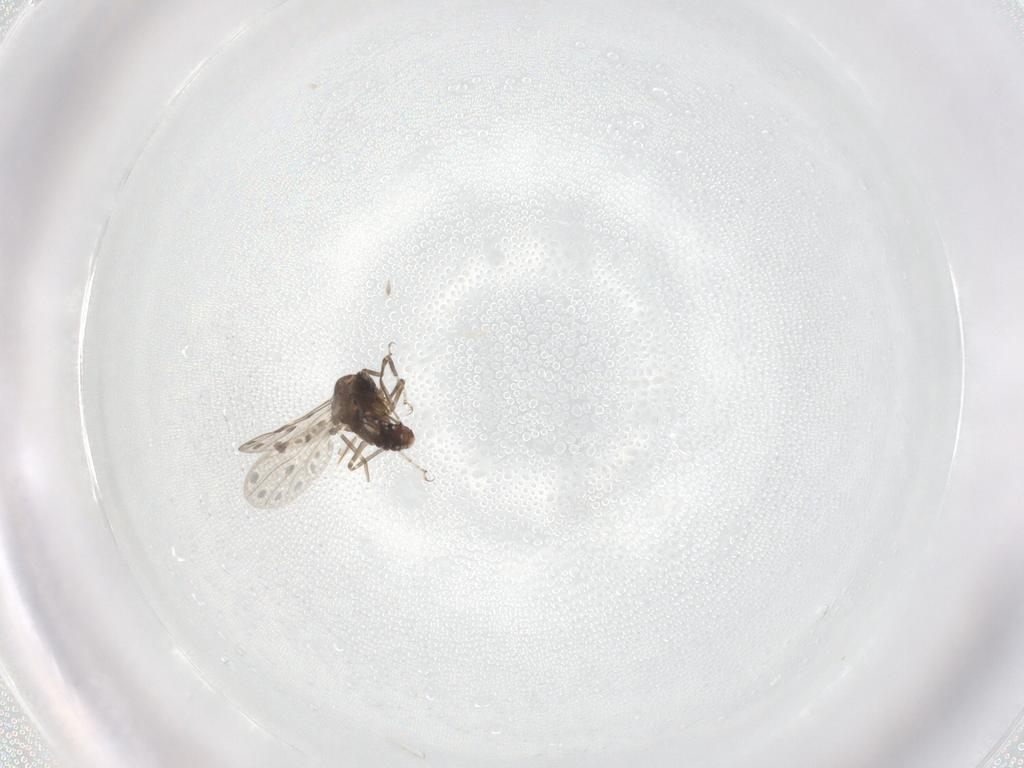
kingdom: Animalia
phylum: Arthropoda
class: Insecta
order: Diptera
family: Ceratopogonidae
